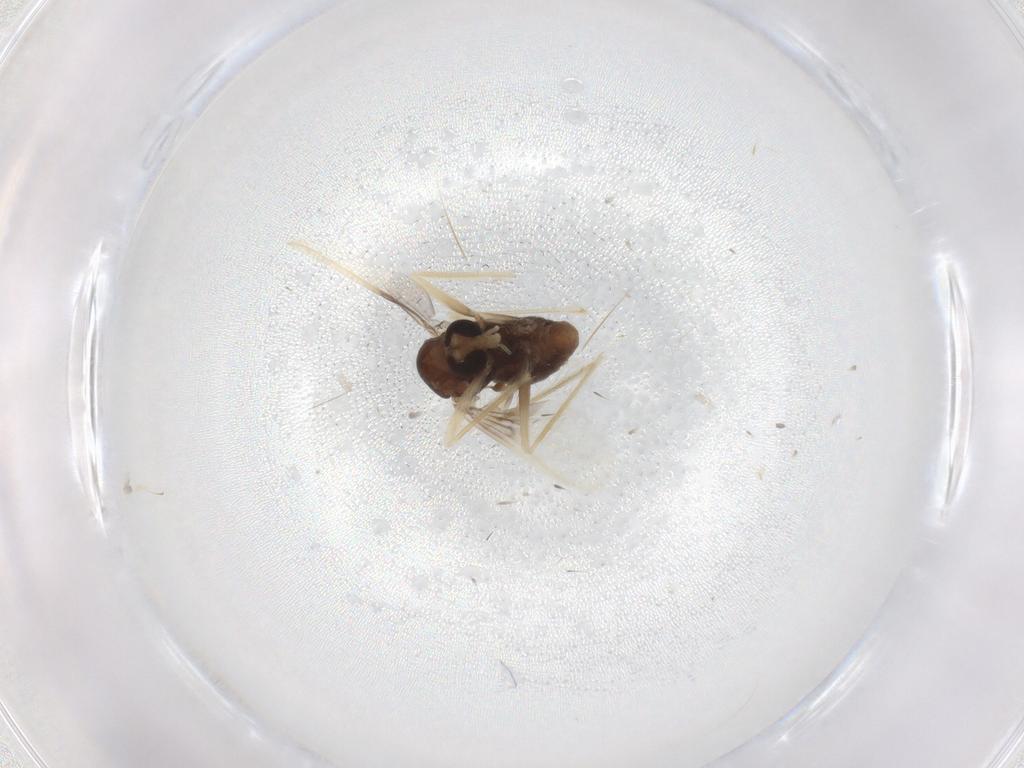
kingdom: Animalia
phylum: Arthropoda
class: Insecta
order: Diptera
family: Chironomidae
